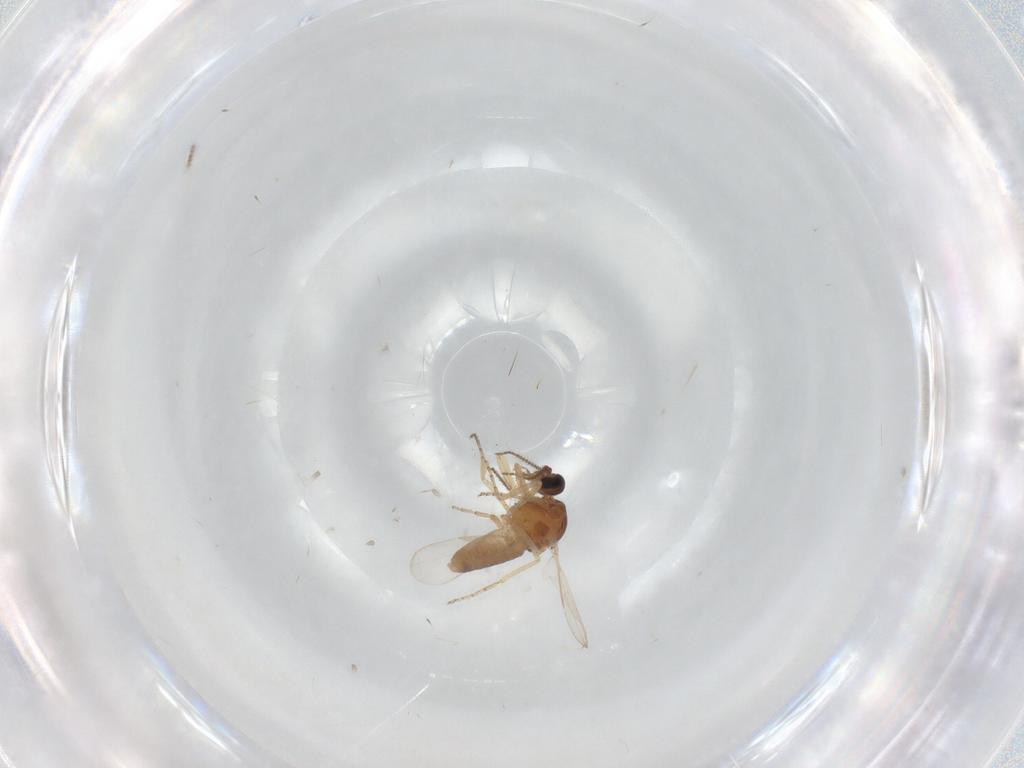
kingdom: Animalia
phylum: Arthropoda
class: Insecta
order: Diptera
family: Ceratopogonidae
